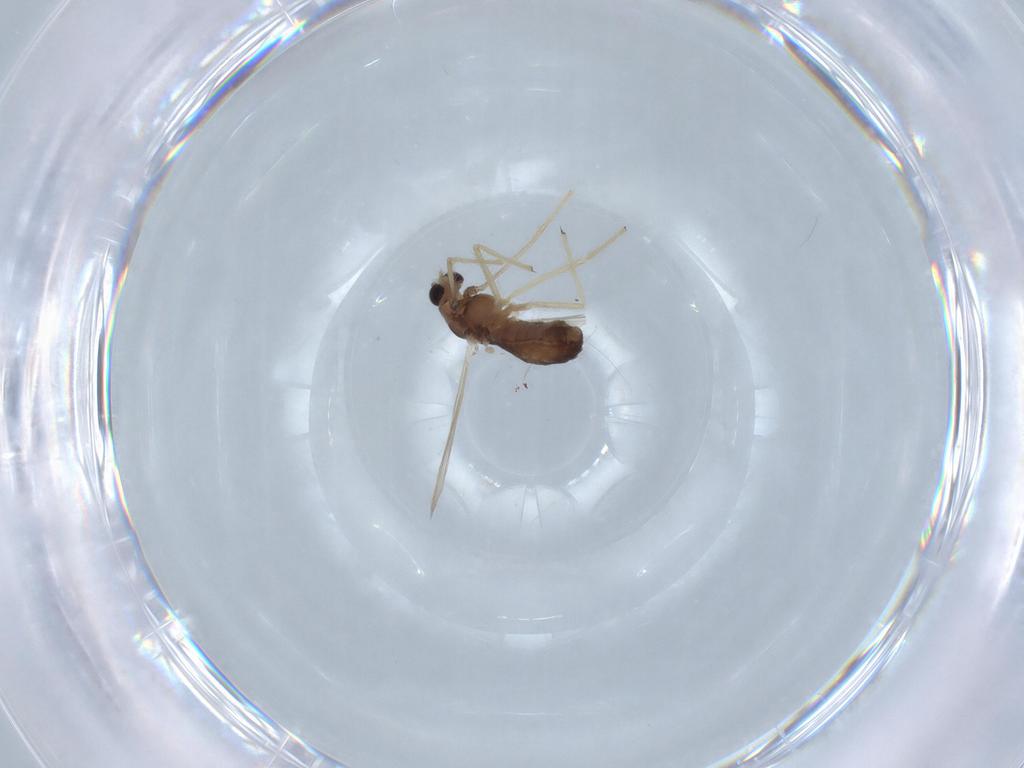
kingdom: Animalia
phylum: Arthropoda
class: Insecta
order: Diptera
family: Chironomidae
